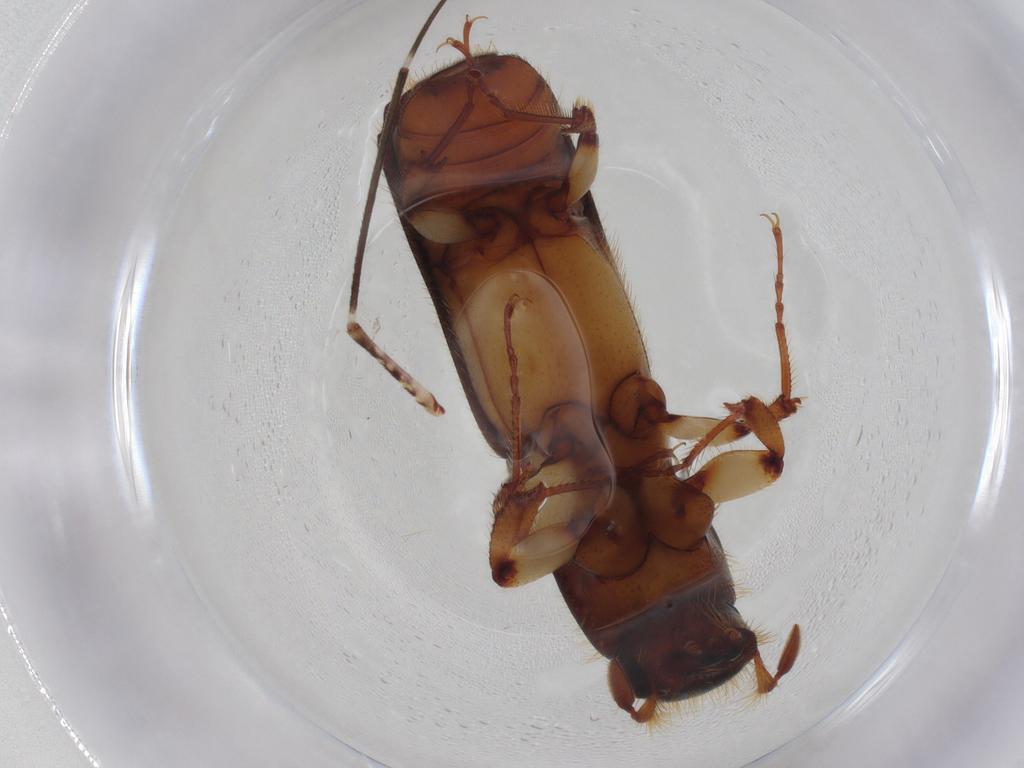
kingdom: Animalia
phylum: Arthropoda
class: Insecta
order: Coleoptera
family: Curculionidae
